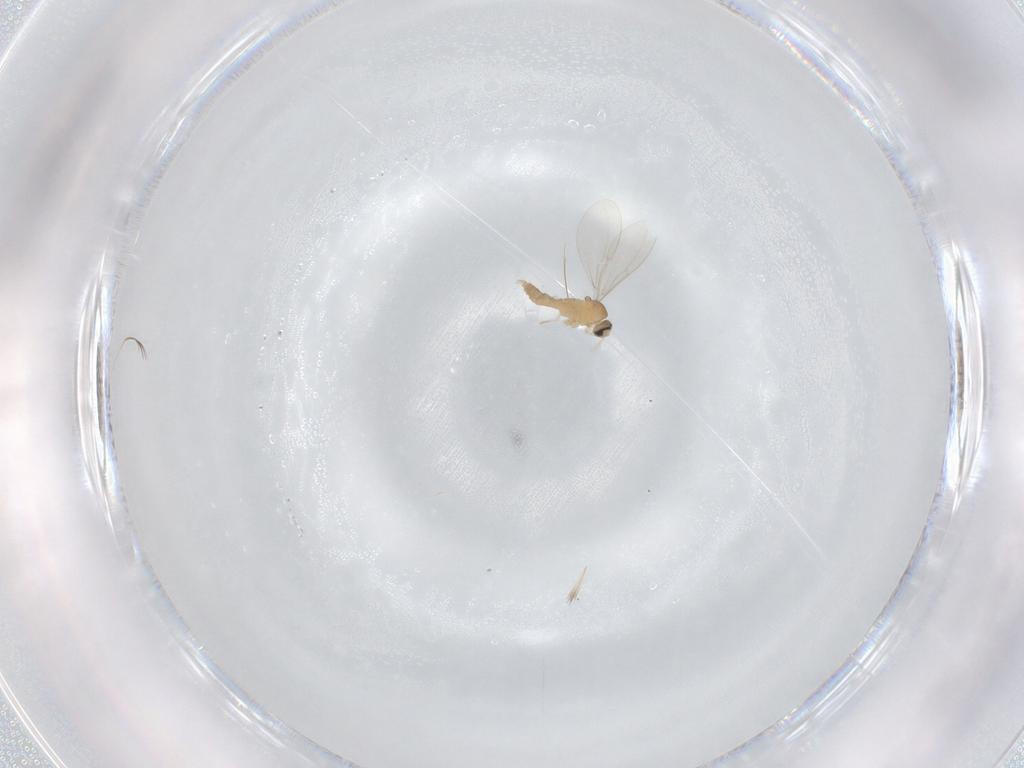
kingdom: Animalia
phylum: Arthropoda
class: Insecta
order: Diptera
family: Cecidomyiidae
